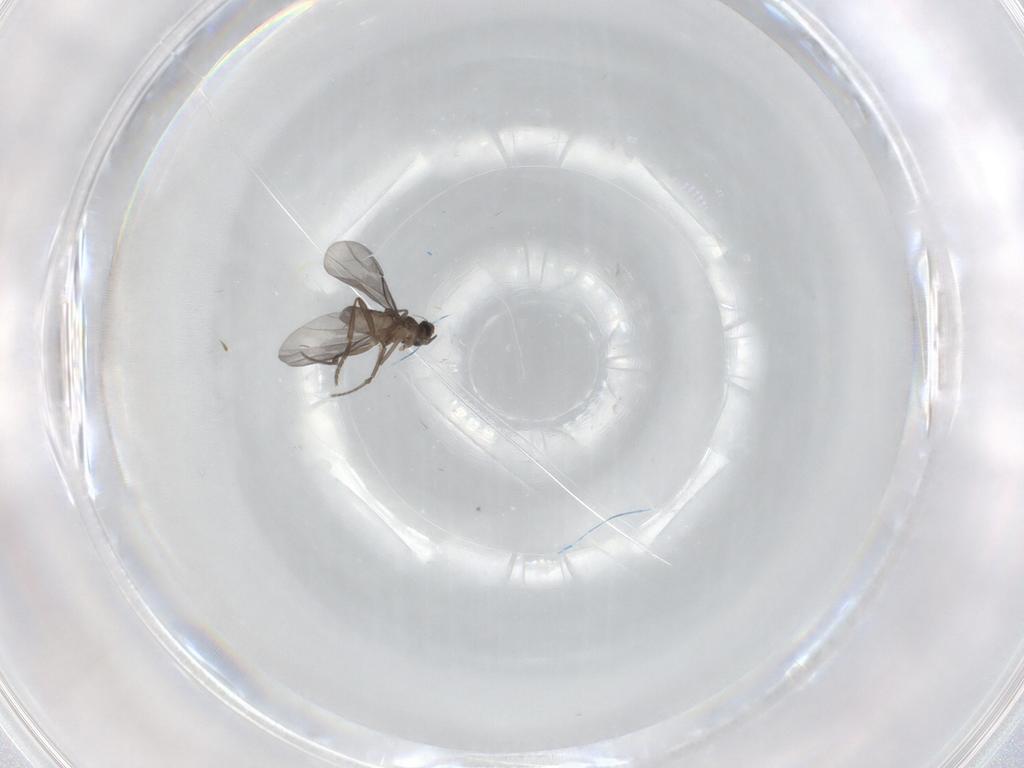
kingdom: Animalia
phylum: Arthropoda
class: Insecta
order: Diptera
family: Phoridae
